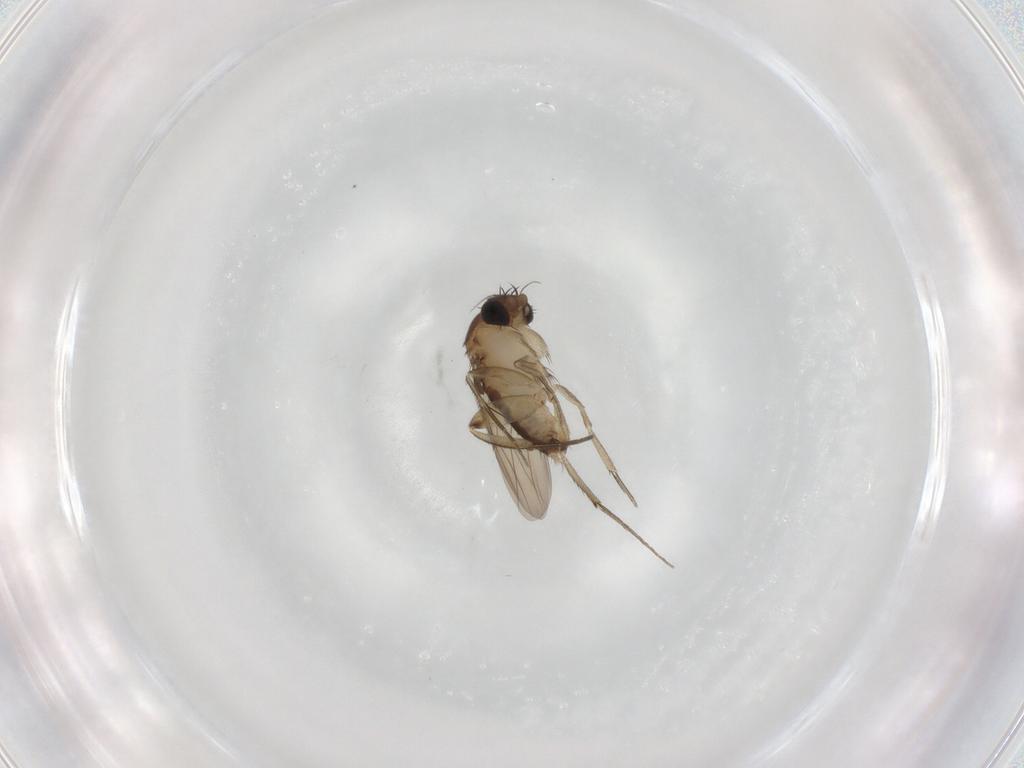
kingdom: Animalia
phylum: Arthropoda
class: Insecta
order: Diptera
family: Phoridae
